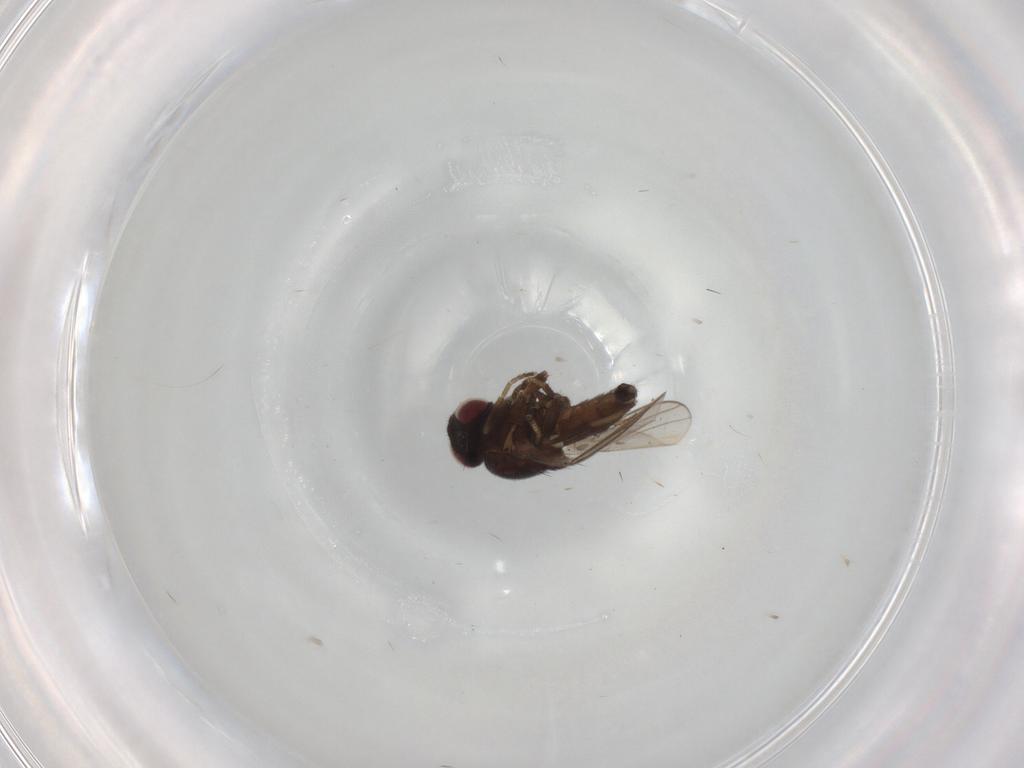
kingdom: Animalia
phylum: Arthropoda
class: Insecta
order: Diptera
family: Chloropidae
